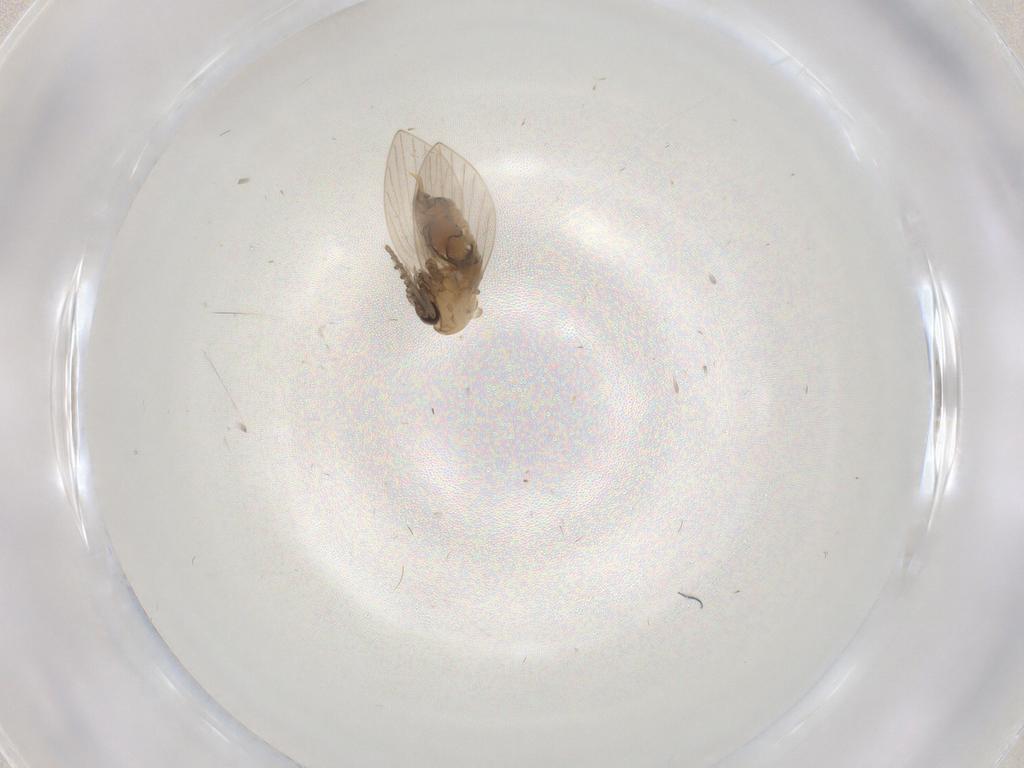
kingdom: Animalia
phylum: Arthropoda
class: Insecta
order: Diptera
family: Psychodidae
